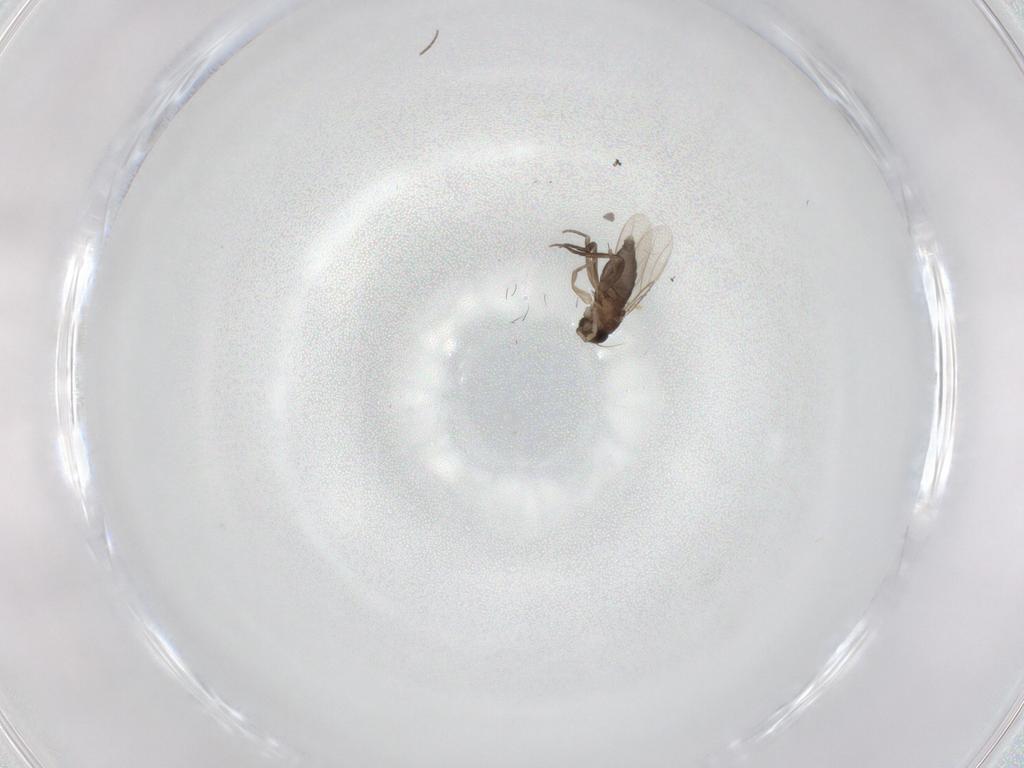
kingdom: Animalia
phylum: Arthropoda
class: Insecta
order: Diptera
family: Phoridae
